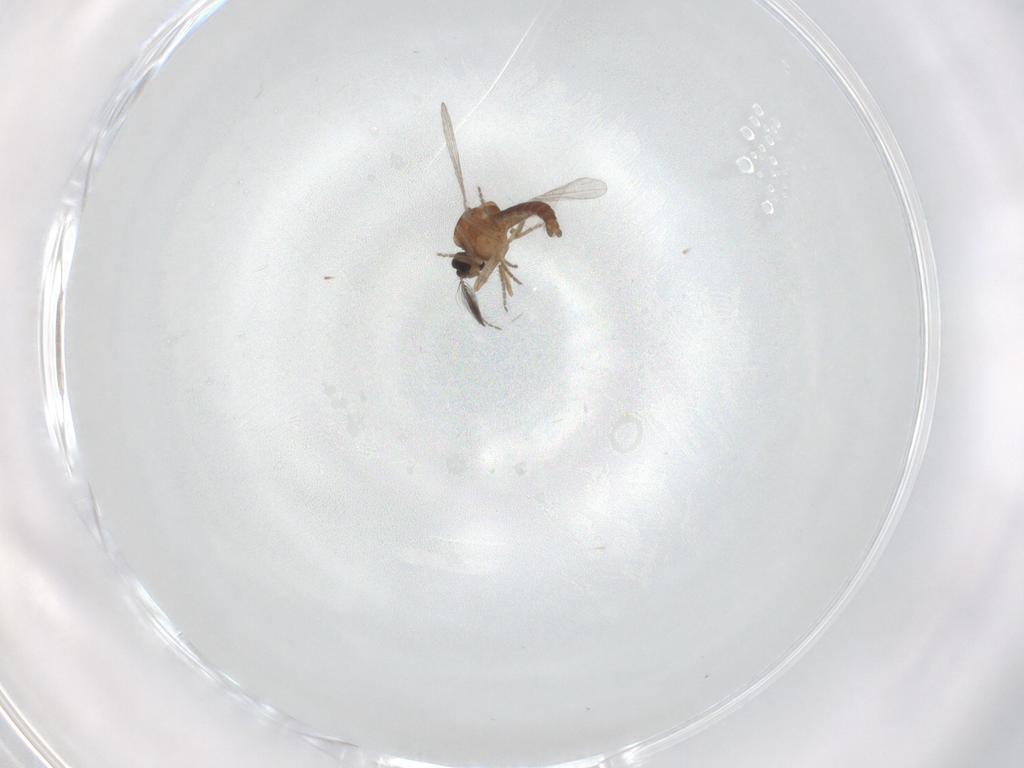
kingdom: Animalia
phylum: Arthropoda
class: Insecta
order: Diptera
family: Ceratopogonidae
